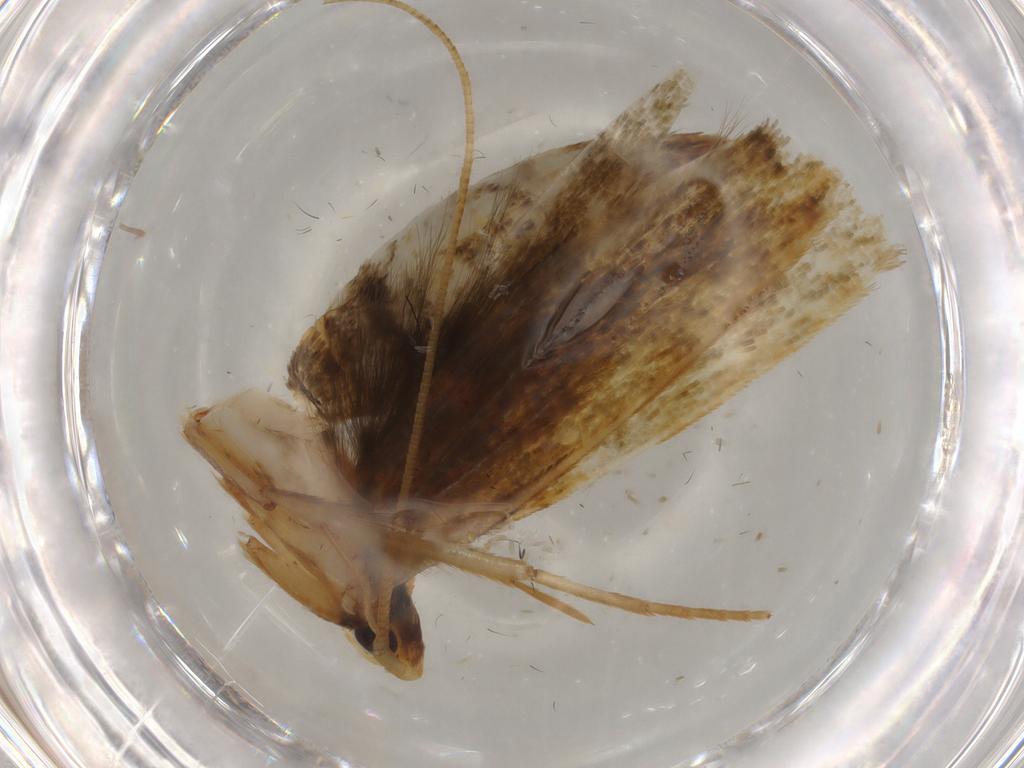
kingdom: Animalia
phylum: Arthropoda
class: Insecta
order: Lepidoptera
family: Tineidae
